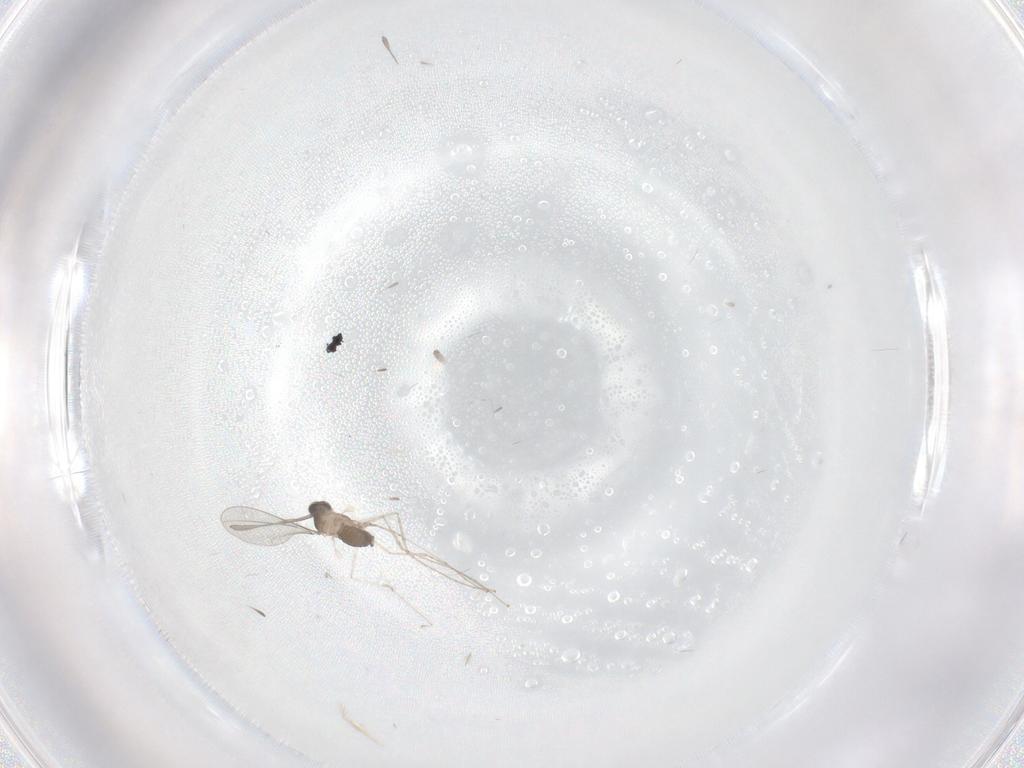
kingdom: Animalia
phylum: Arthropoda
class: Insecta
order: Diptera
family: Cecidomyiidae
